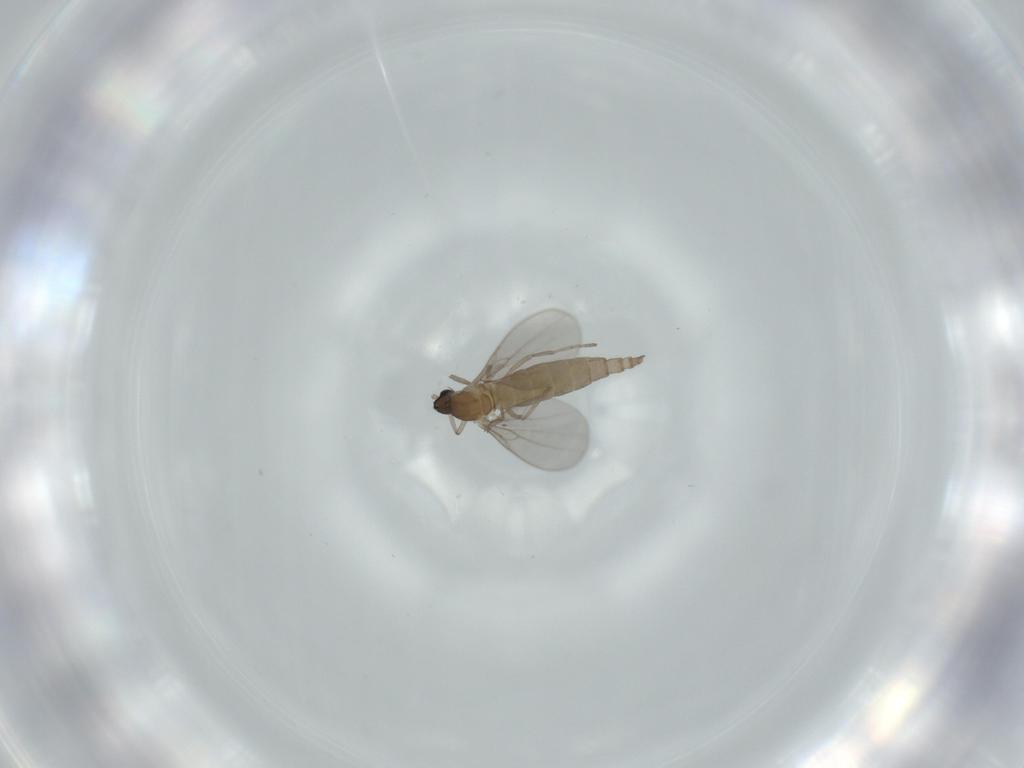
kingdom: Animalia
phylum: Arthropoda
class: Insecta
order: Diptera
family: Cecidomyiidae
